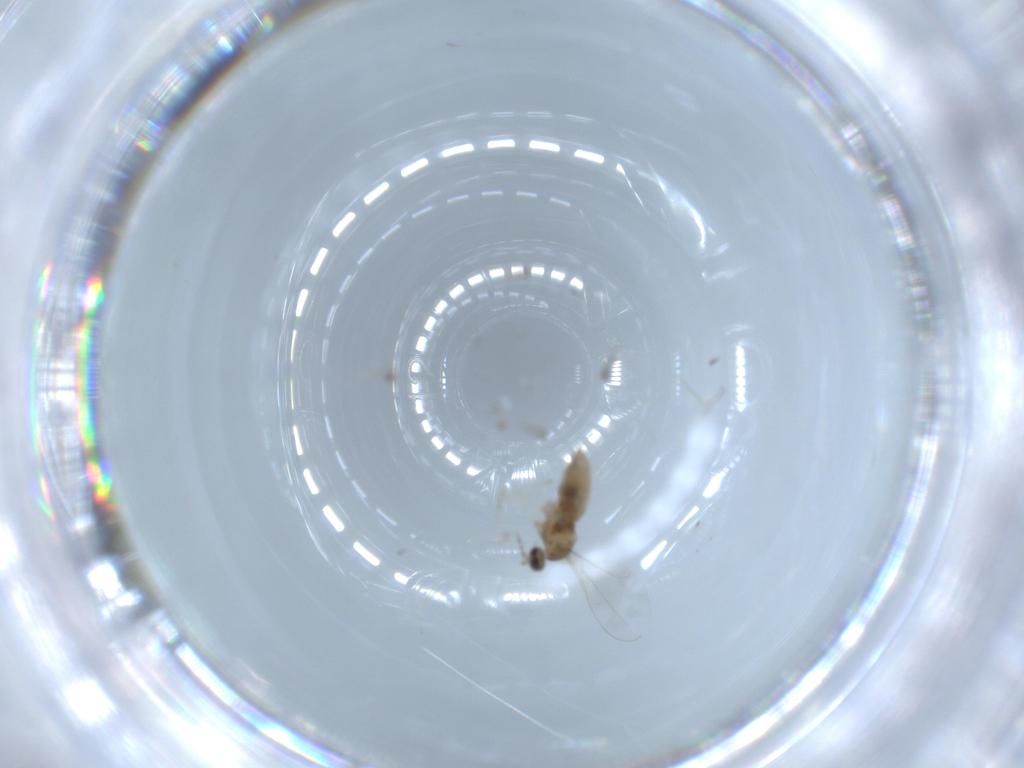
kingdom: Animalia
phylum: Arthropoda
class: Insecta
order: Diptera
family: Cecidomyiidae
